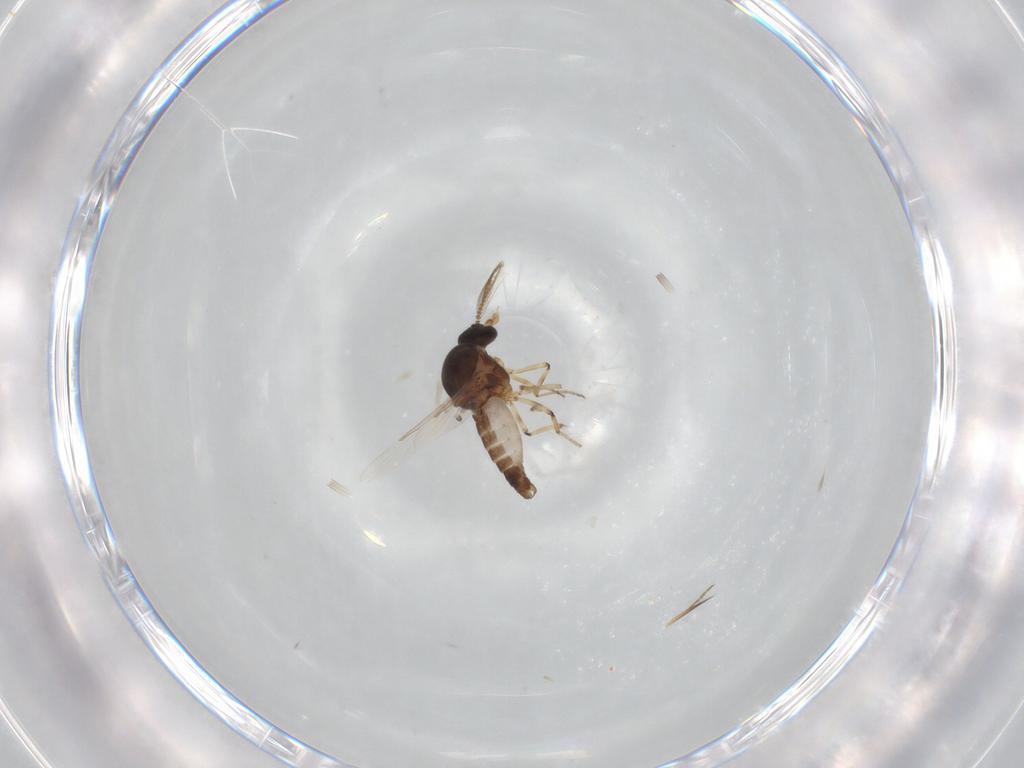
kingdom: Animalia
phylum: Arthropoda
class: Insecta
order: Diptera
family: Ceratopogonidae
